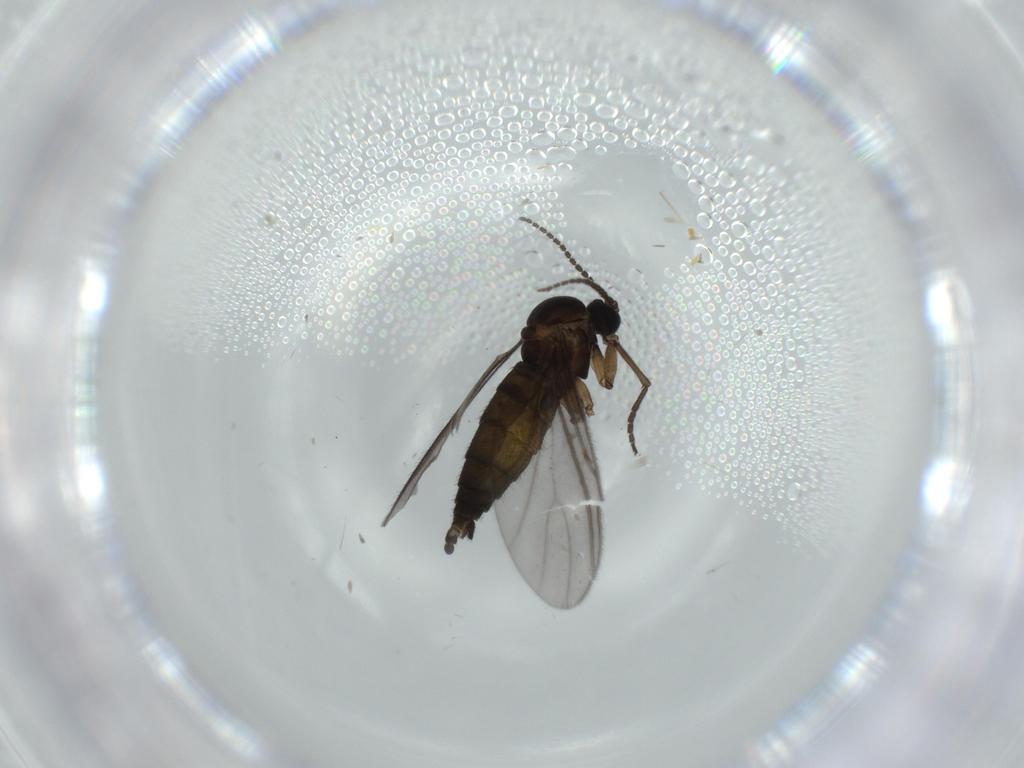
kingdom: Animalia
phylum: Arthropoda
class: Insecta
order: Diptera
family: Sciaridae
